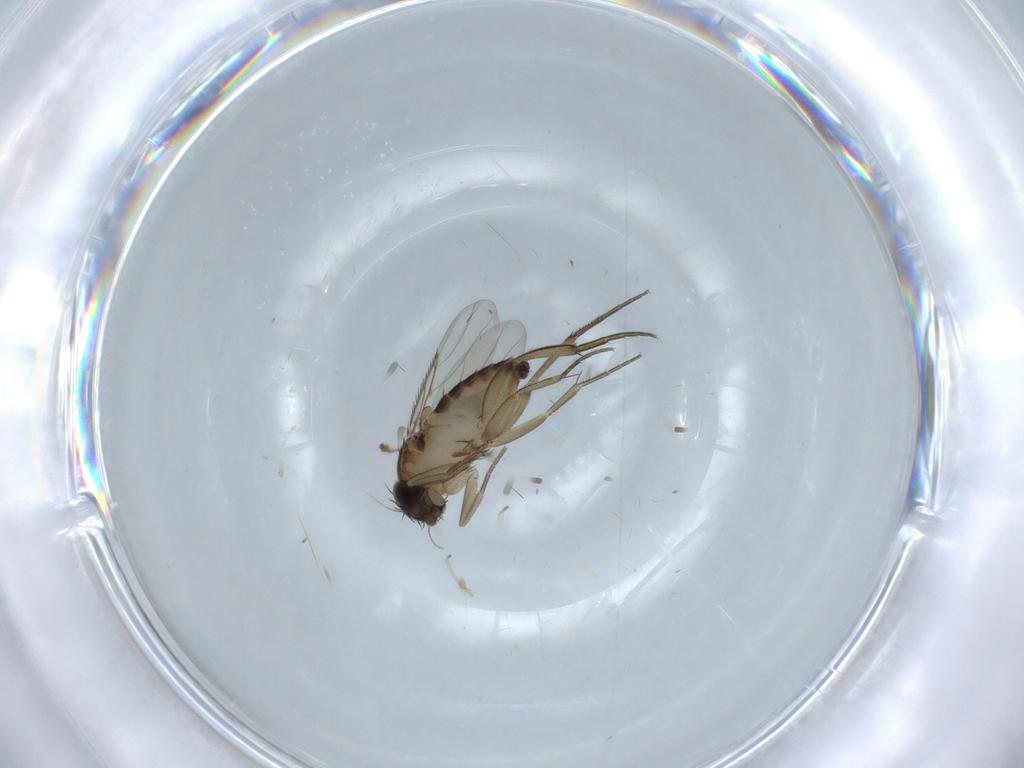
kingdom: Animalia
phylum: Arthropoda
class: Insecta
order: Diptera
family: Phoridae
